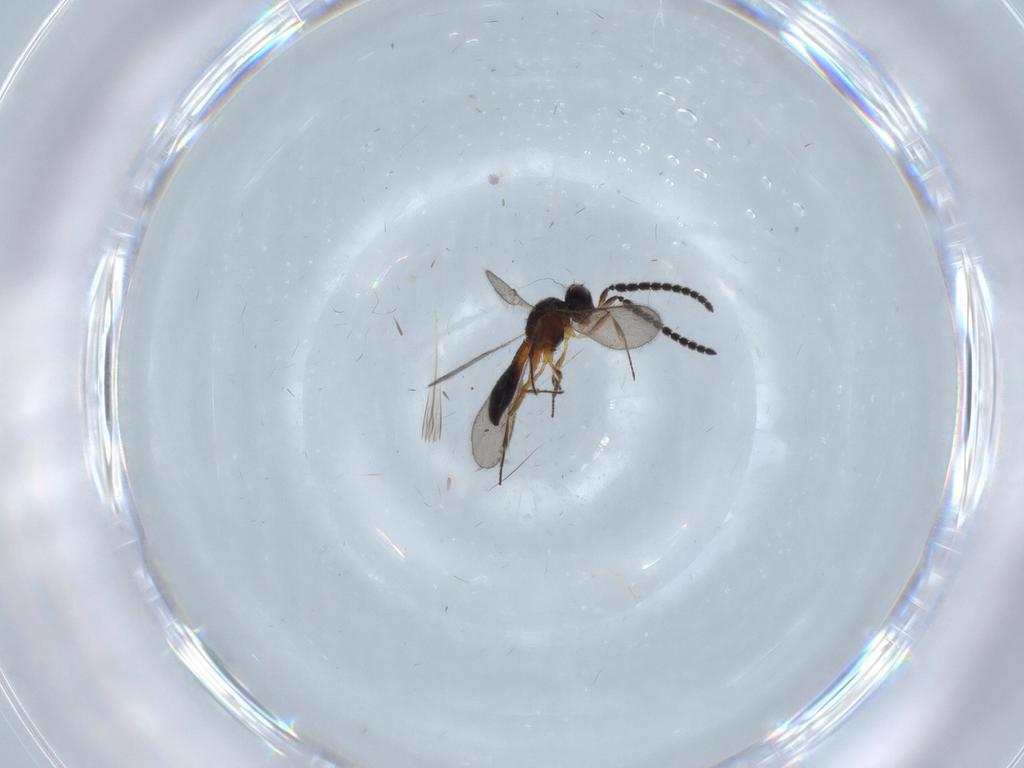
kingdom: Animalia
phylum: Arthropoda
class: Insecta
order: Hymenoptera
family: Scelionidae
